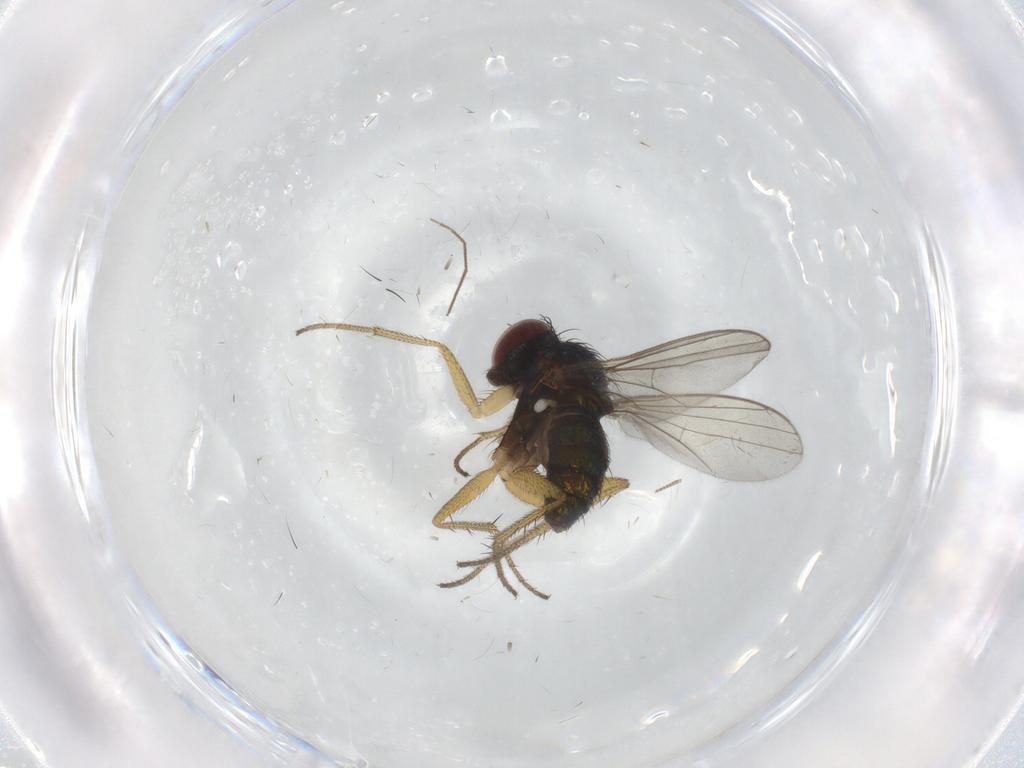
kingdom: Animalia
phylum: Arthropoda
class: Insecta
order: Diptera
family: Dolichopodidae
